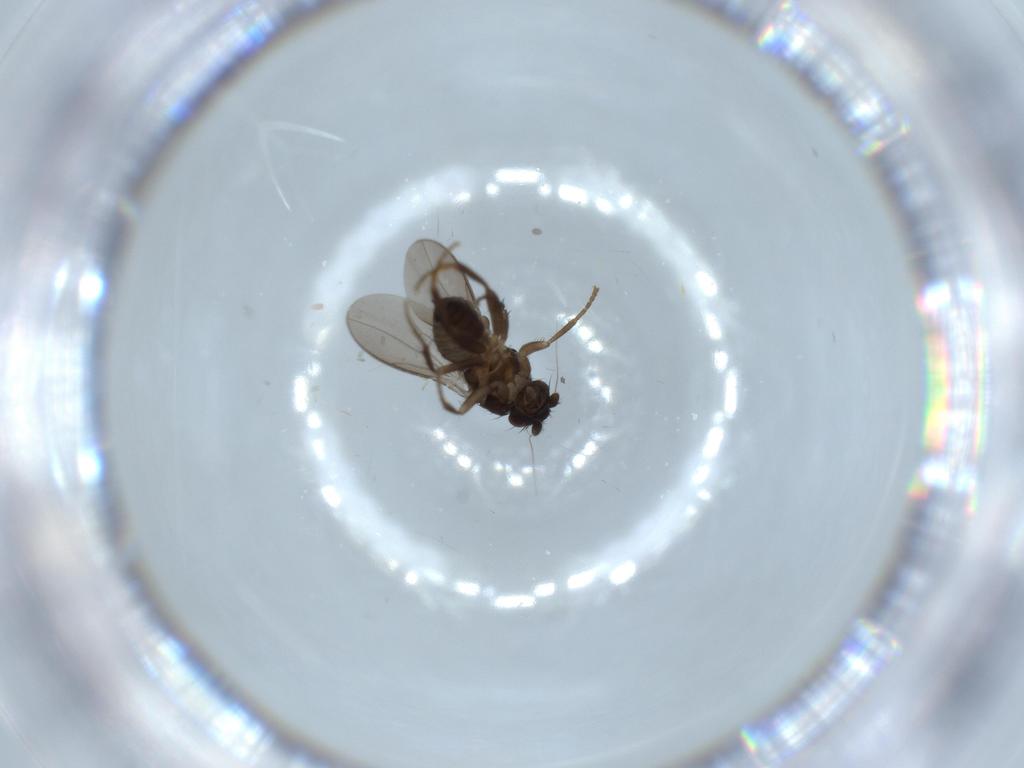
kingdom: Animalia
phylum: Arthropoda
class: Insecta
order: Diptera
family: Sphaeroceridae
